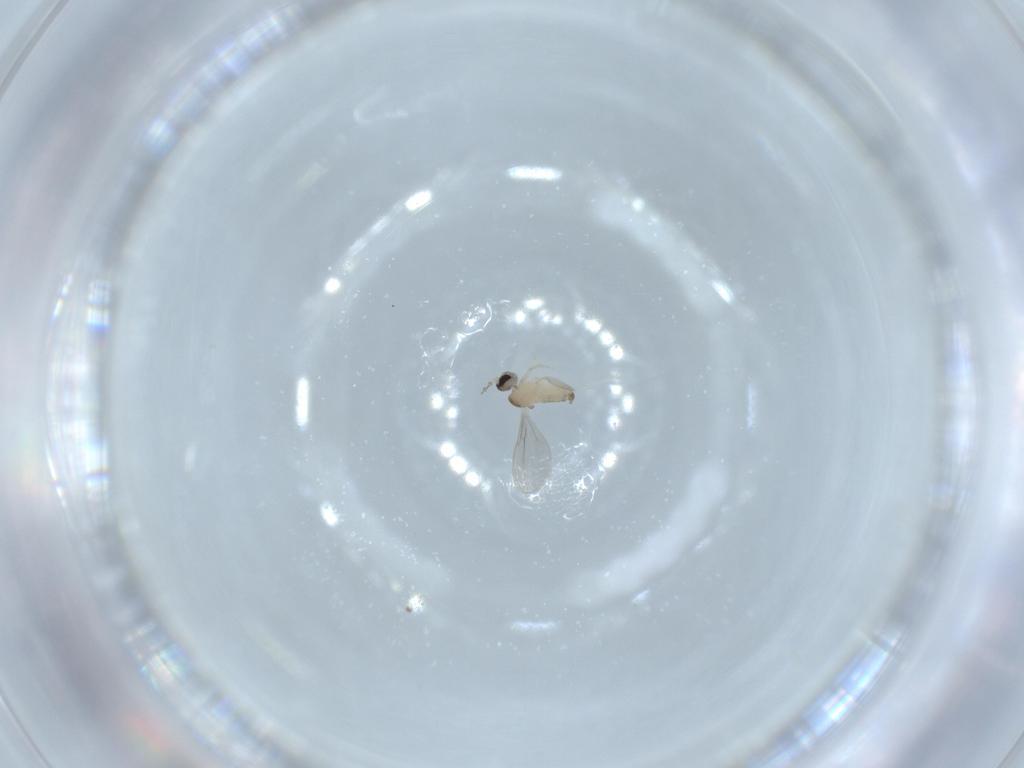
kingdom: Animalia
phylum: Arthropoda
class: Insecta
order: Diptera
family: Cecidomyiidae
